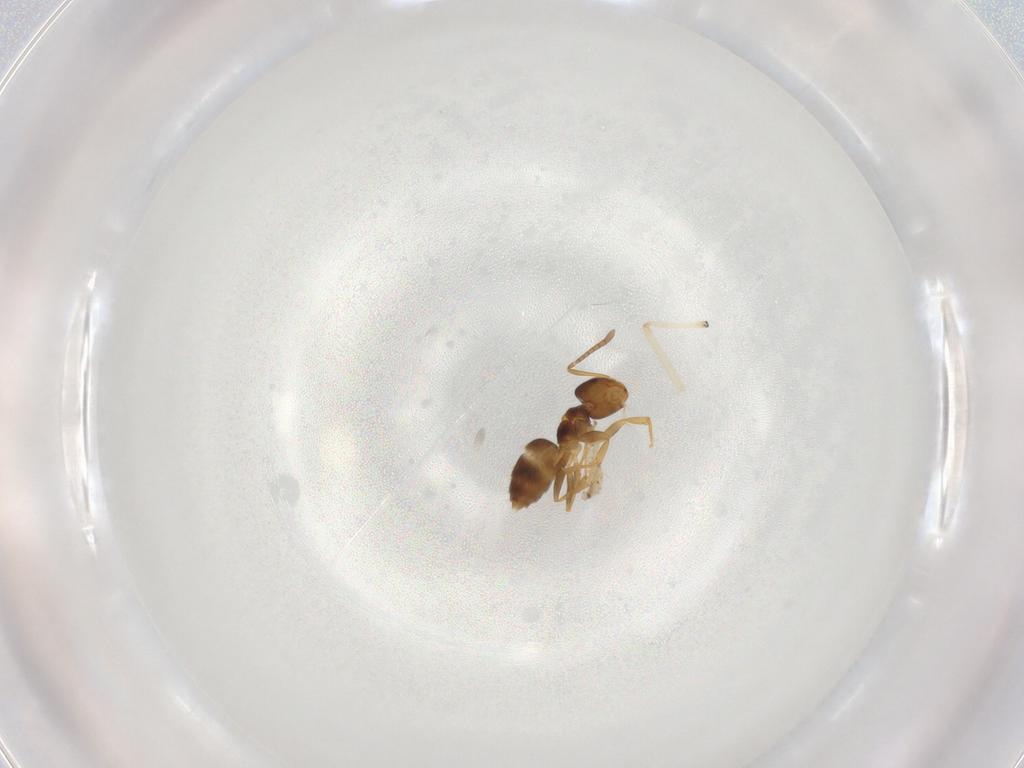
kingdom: Animalia
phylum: Arthropoda
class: Insecta
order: Hymenoptera
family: Formicidae
